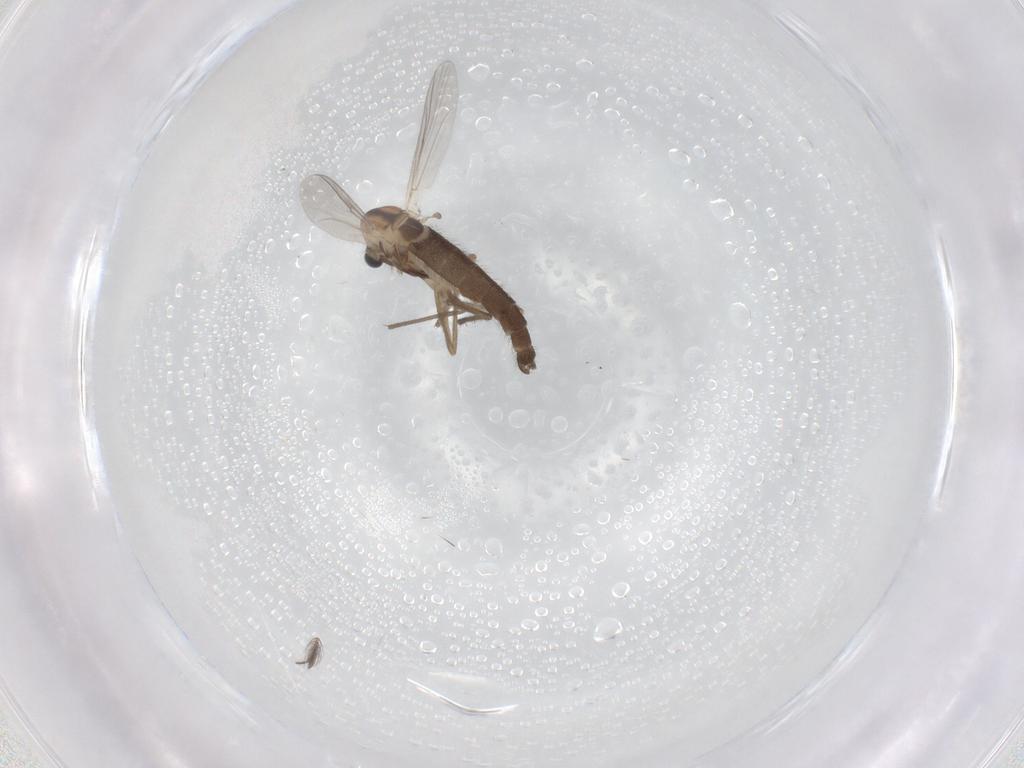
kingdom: Animalia
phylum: Arthropoda
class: Insecta
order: Diptera
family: Chironomidae
